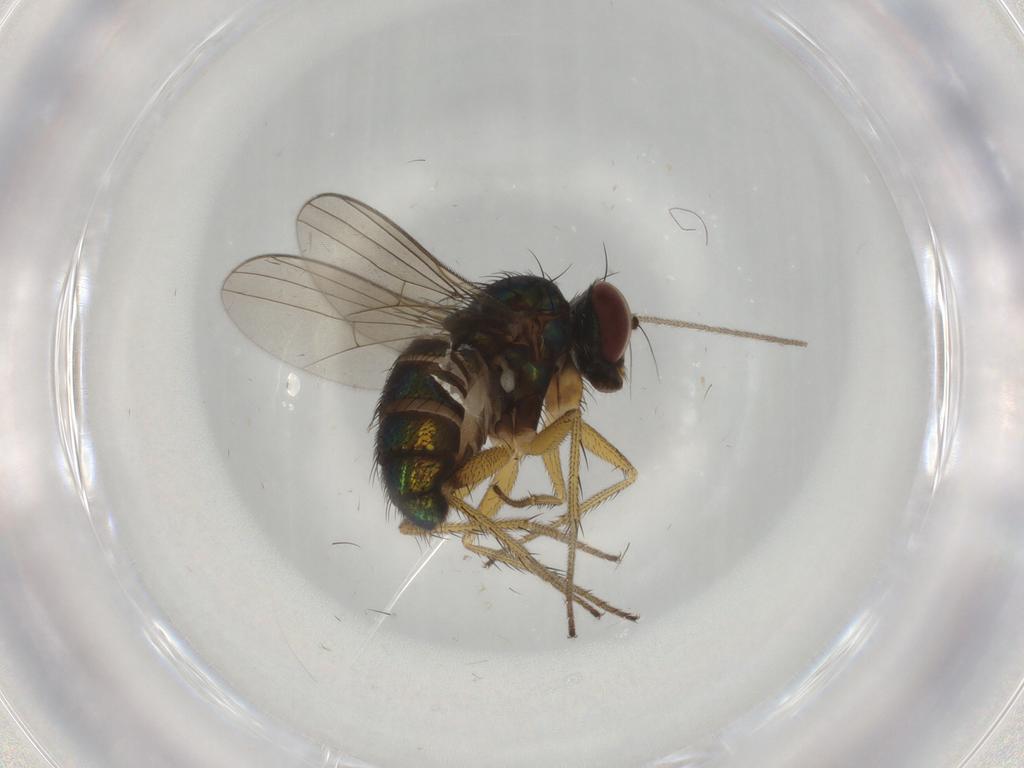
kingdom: Animalia
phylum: Arthropoda
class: Insecta
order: Diptera
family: Dolichopodidae
